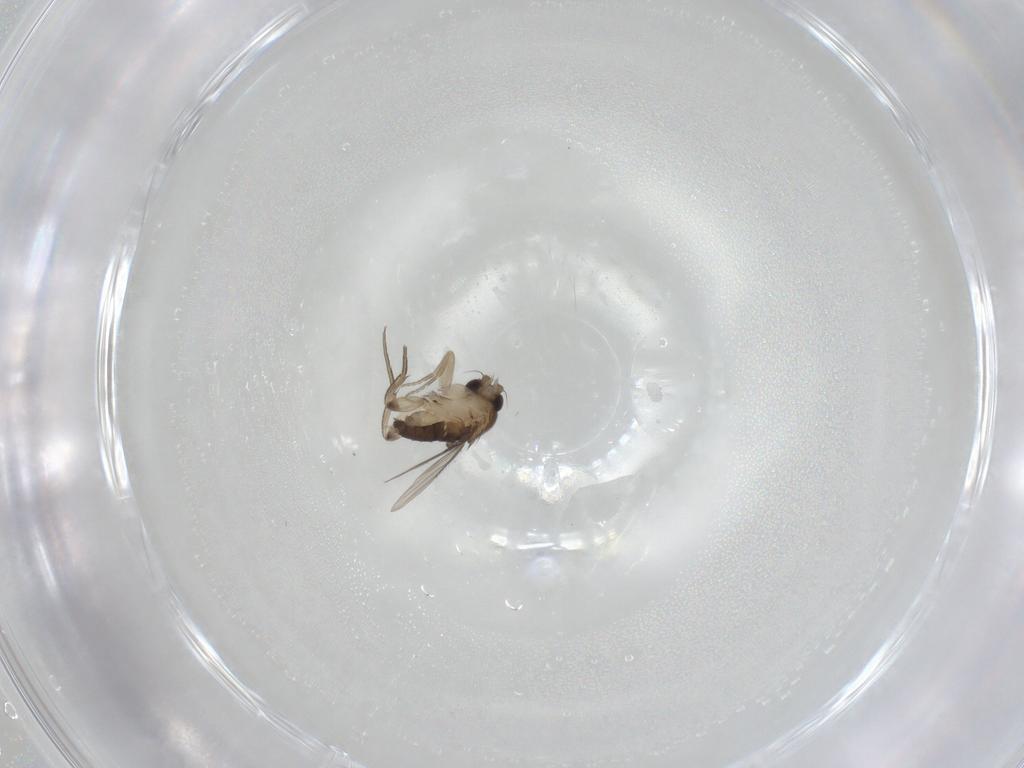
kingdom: Animalia
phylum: Arthropoda
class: Insecta
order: Diptera
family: Phoridae
